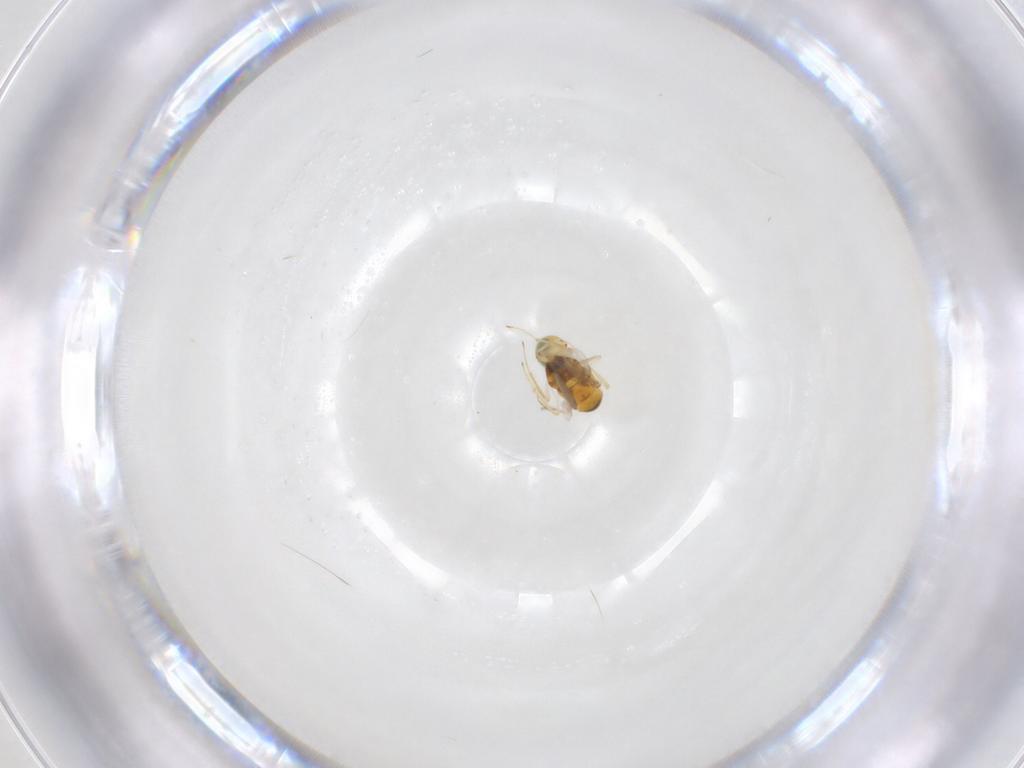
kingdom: Animalia
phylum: Arthropoda
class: Insecta
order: Hymenoptera
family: Eulophidae
